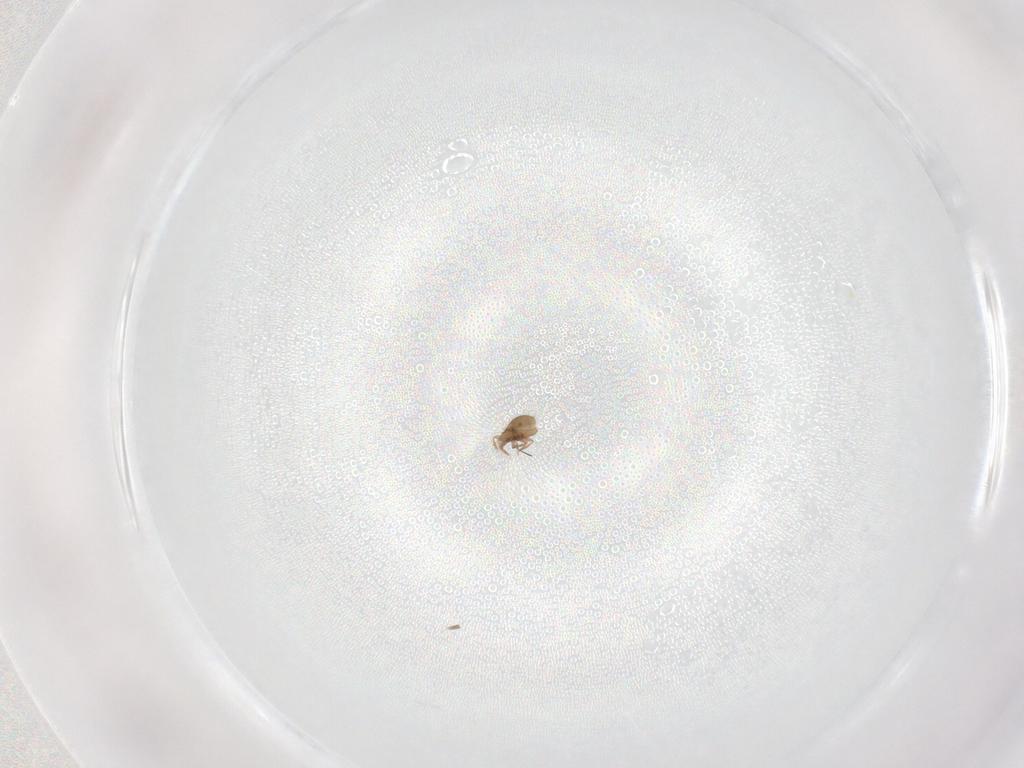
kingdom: Animalia
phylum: Arthropoda
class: Arachnida
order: Sarcoptiformes
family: Oribatulidae
